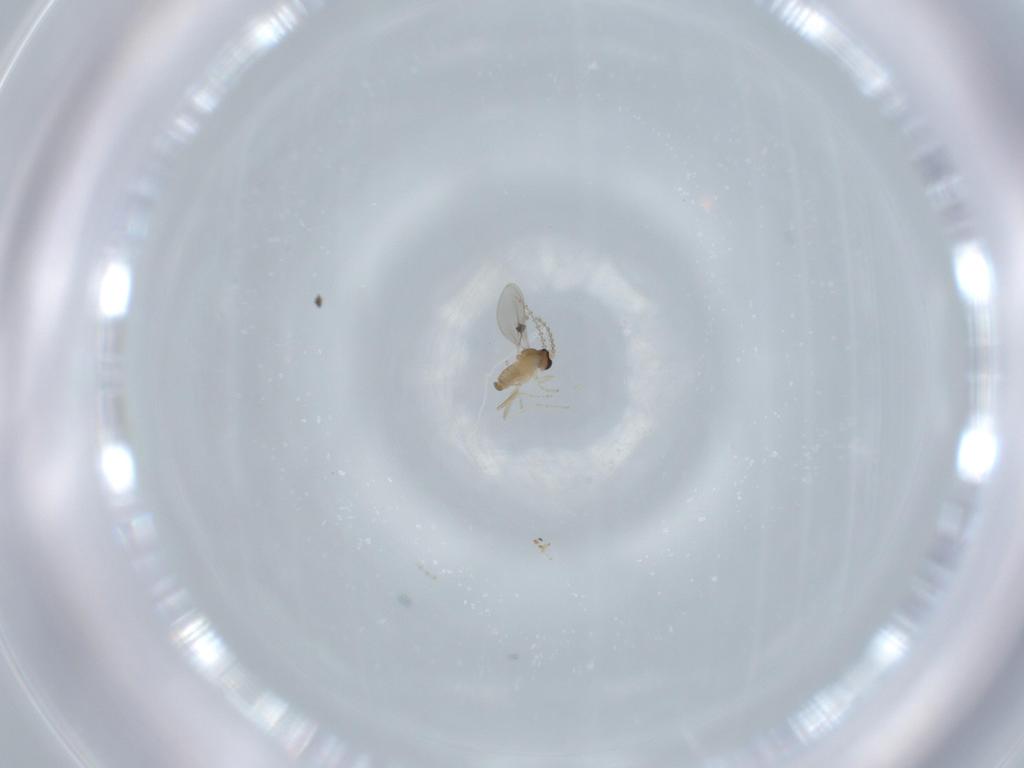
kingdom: Animalia
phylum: Arthropoda
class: Insecta
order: Diptera
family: Cecidomyiidae
